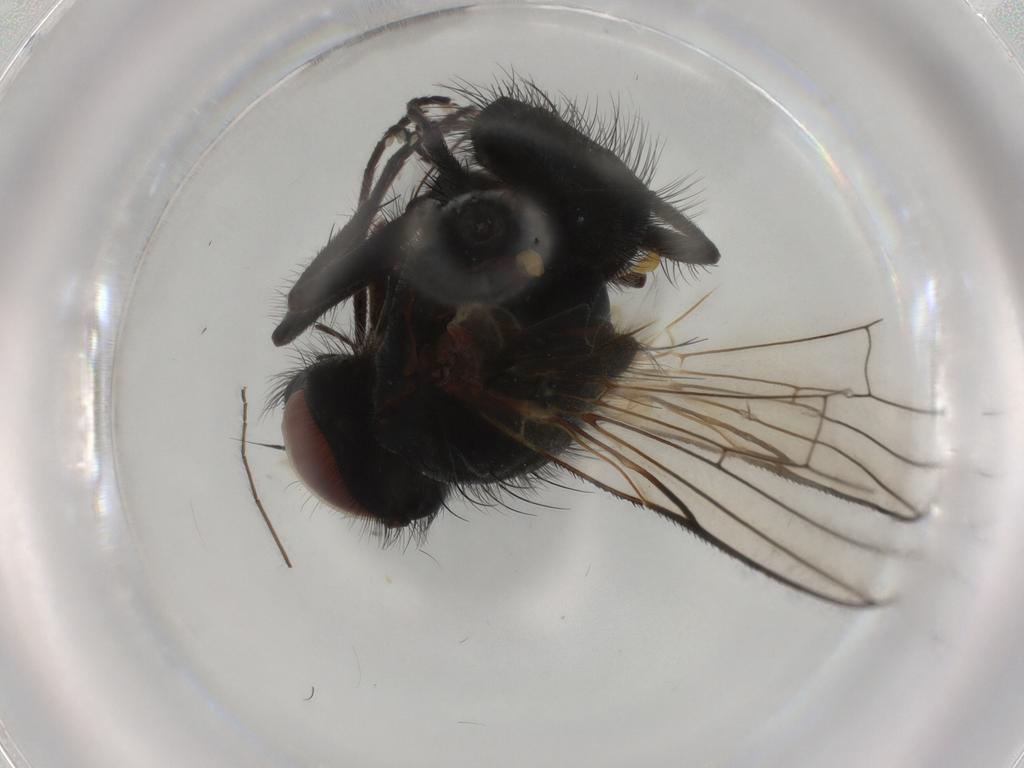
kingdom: Animalia
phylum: Arthropoda
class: Insecta
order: Diptera
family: Anthomyiidae
